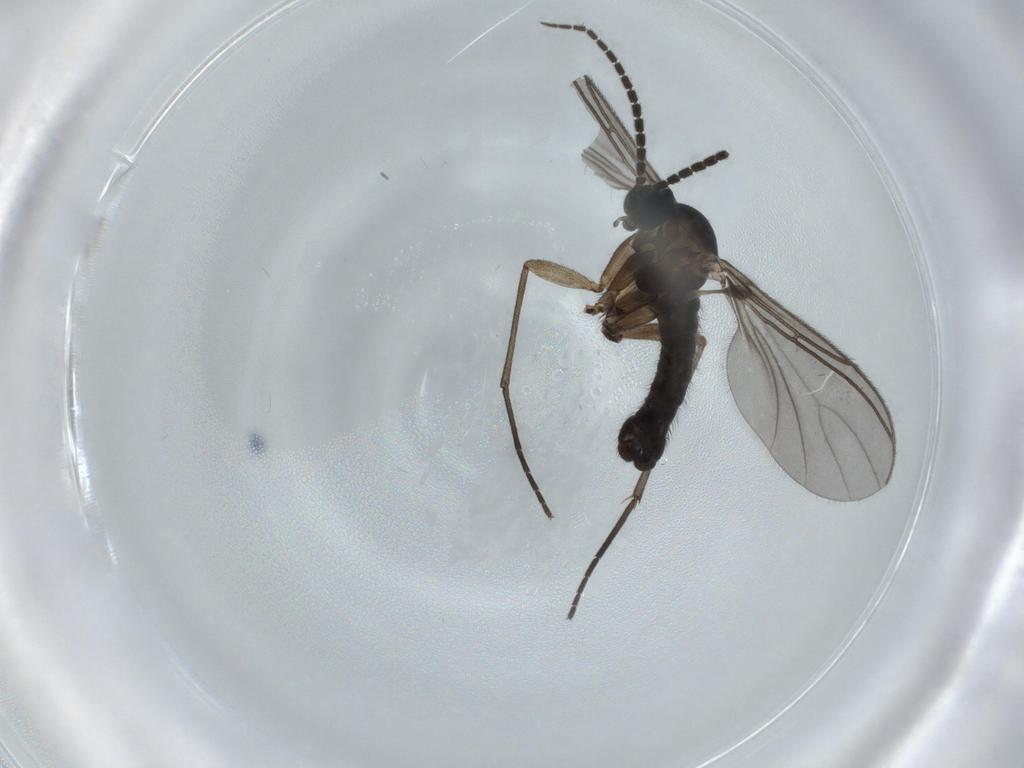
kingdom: Animalia
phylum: Arthropoda
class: Insecta
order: Diptera
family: Sciaridae
